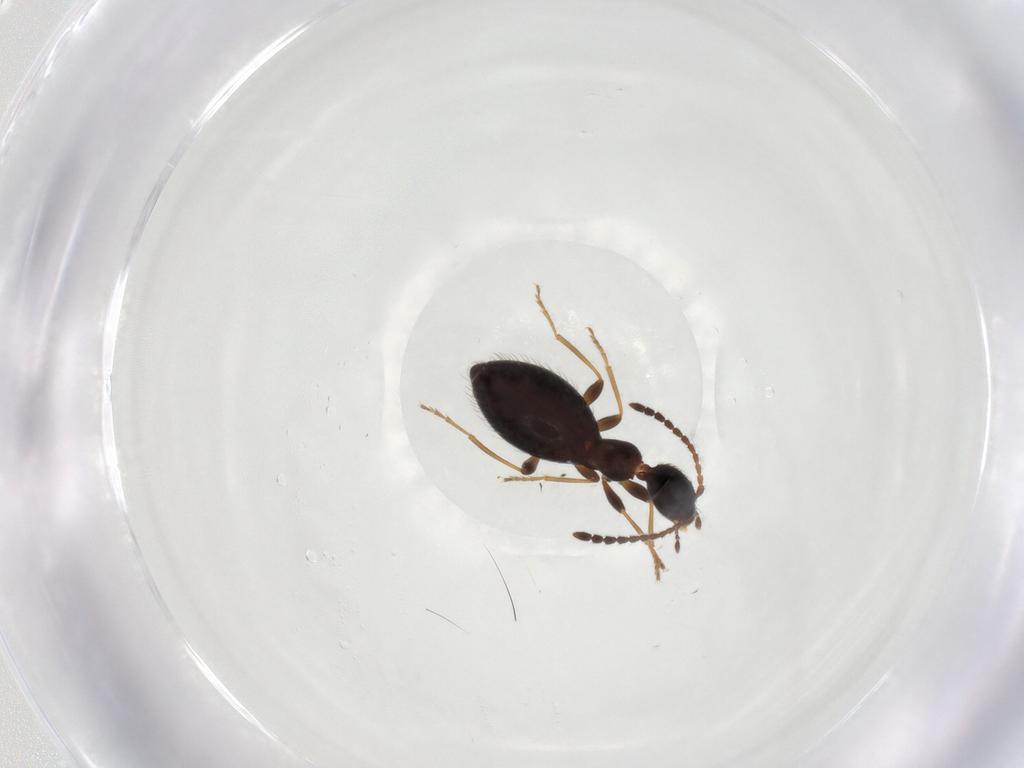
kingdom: Animalia
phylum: Arthropoda
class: Insecta
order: Coleoptera
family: Anthicidae
